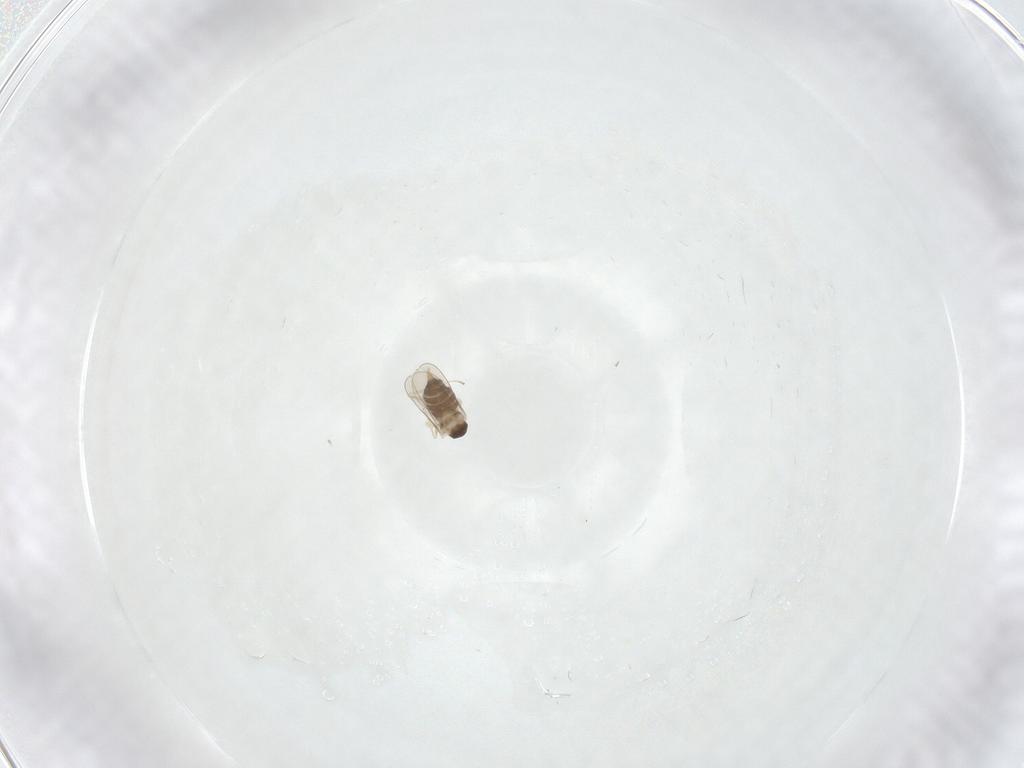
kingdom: Animalia
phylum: Arthropoda
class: Insecta
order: Diptera
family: Cecidomyiidae
